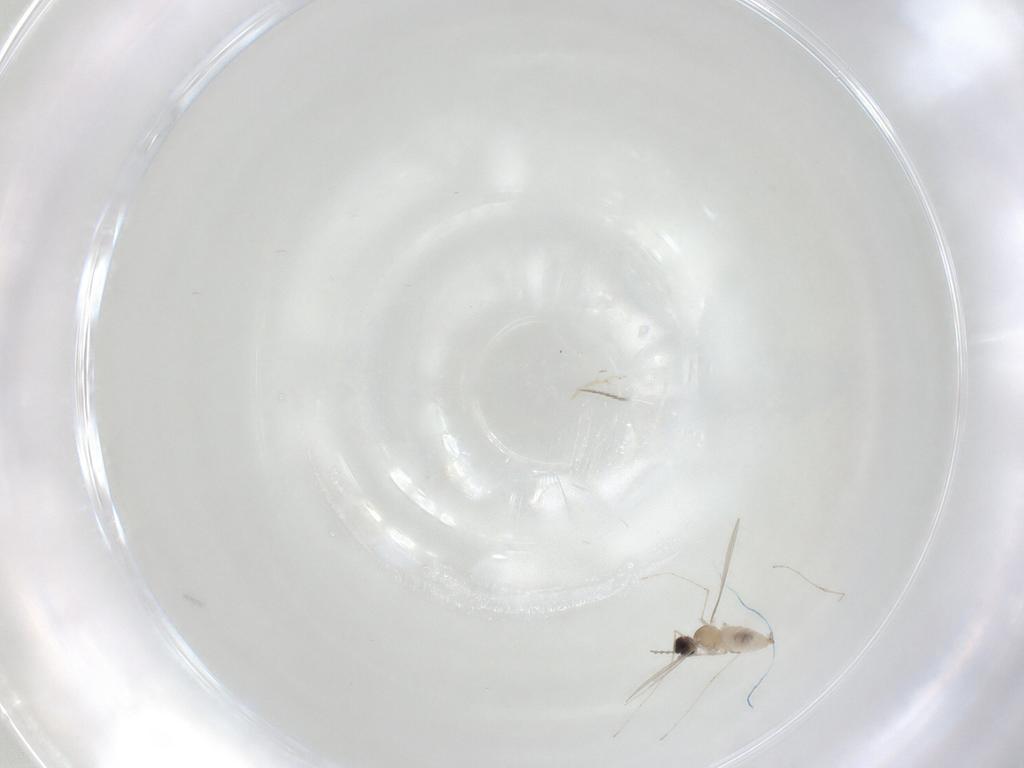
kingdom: Animalia
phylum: Arthropoda
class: Insecta
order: Diptera
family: Cecidomyiidae
